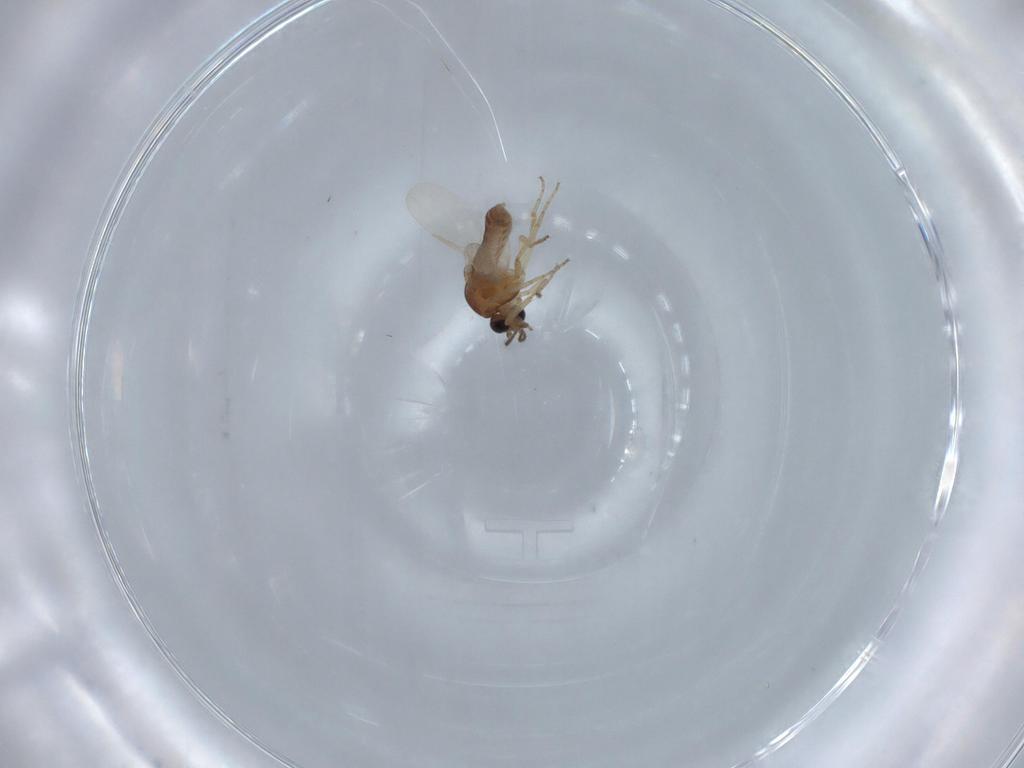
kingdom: Animalia
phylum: Arthropoda
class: Insecta
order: Diptera
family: Ceratopogonidae
